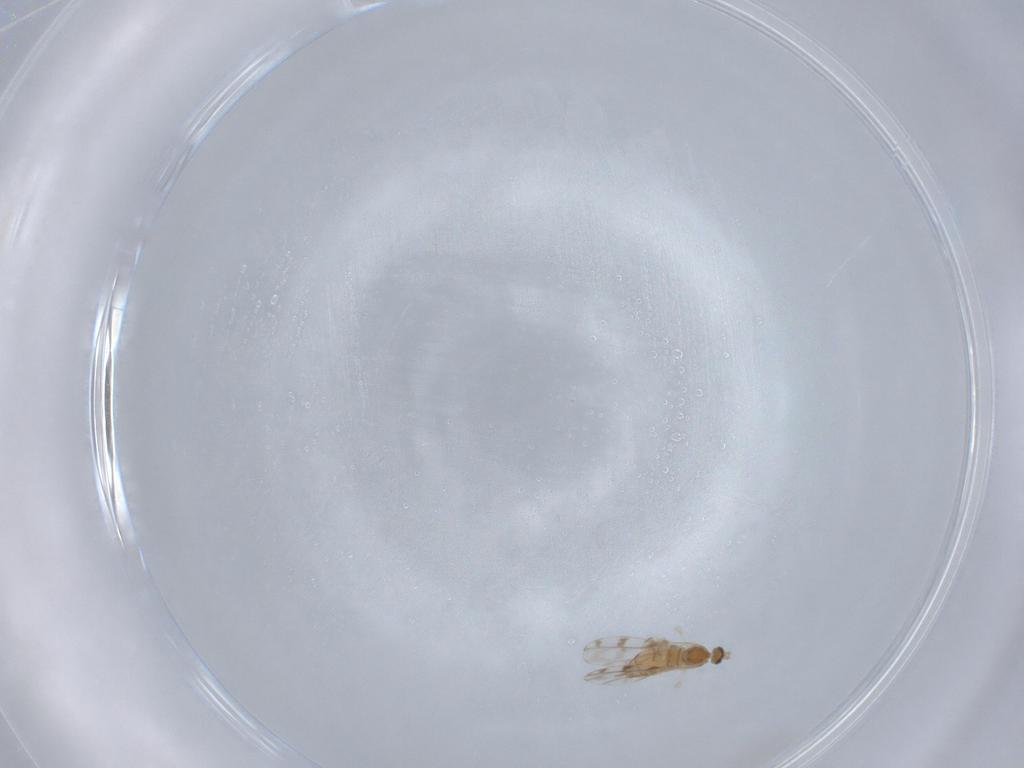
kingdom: Animalia
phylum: Arthropoda
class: Insecta
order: Diptera
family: Cecidomyiidae
